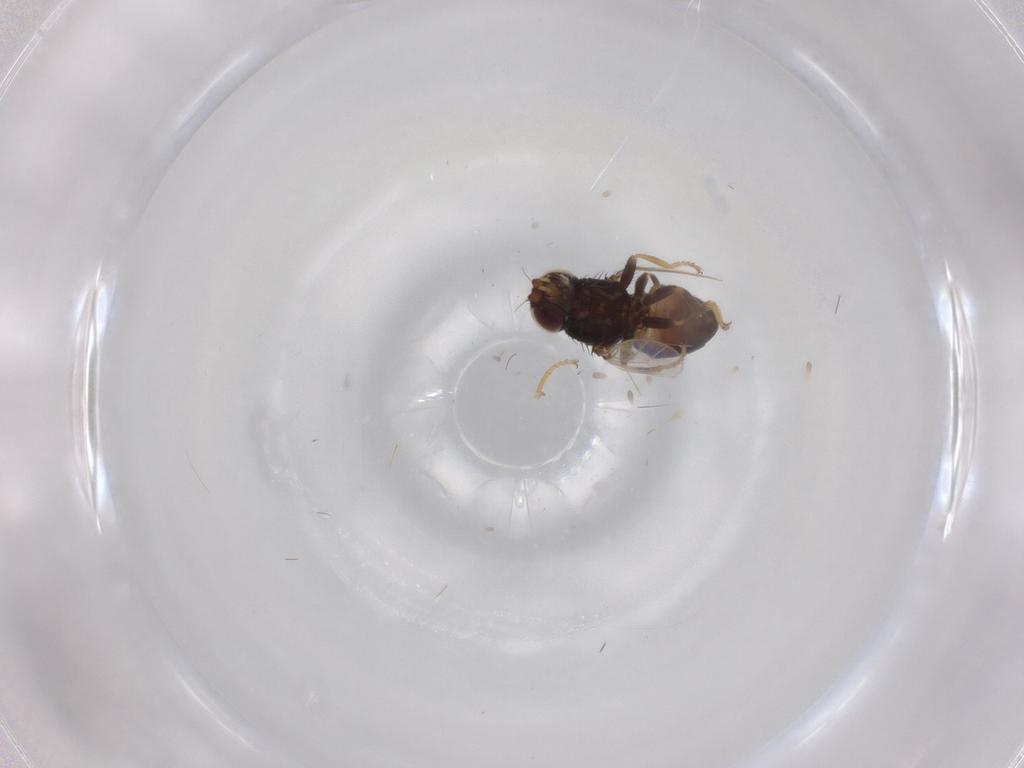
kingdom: Animalia
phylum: Arthropoda
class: Insecta
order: Diptera
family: Chloropidae
